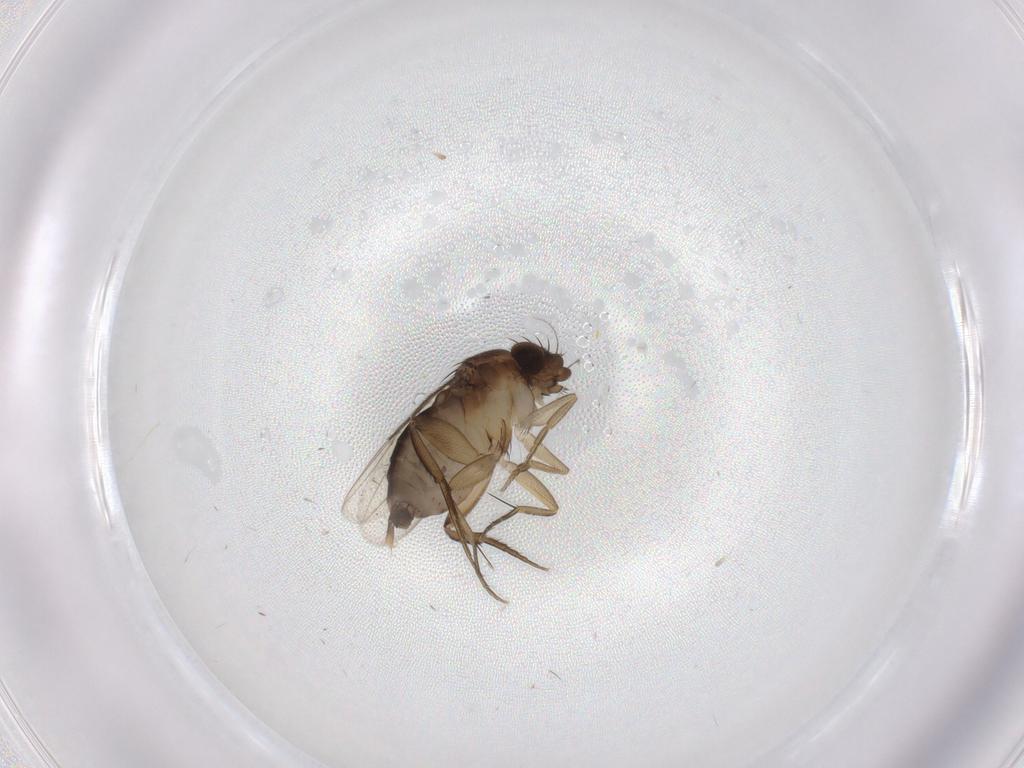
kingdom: Animalia
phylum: Arthropoda
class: Insecta
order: Diptera
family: Phoridae
